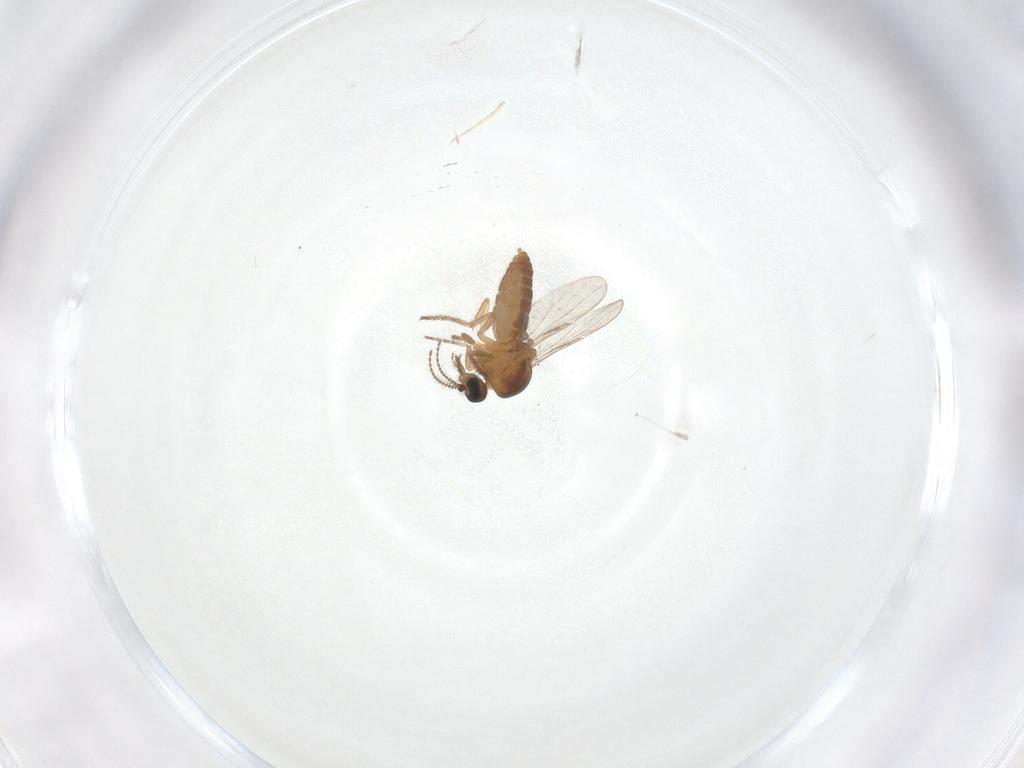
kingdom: Animalia
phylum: Arthropoda
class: Insecta
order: Diptera
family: Ceratopogonidae
